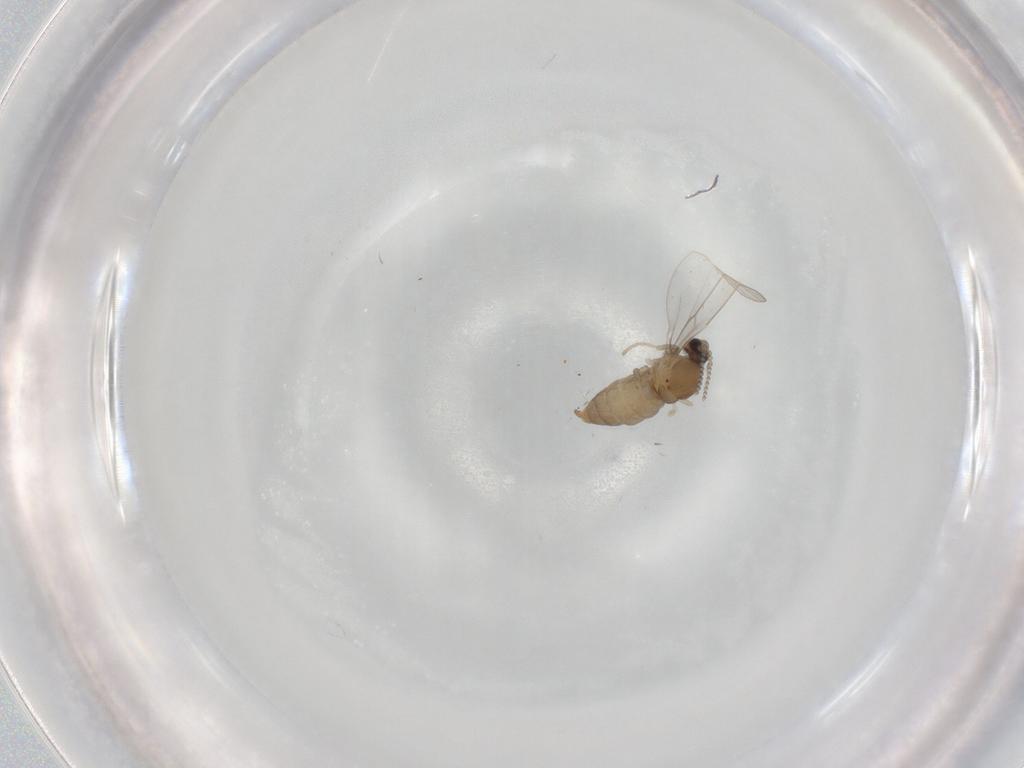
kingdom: Animalia
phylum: Arthropoda
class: Insecta
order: Diptera
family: Cecidomyiidae
